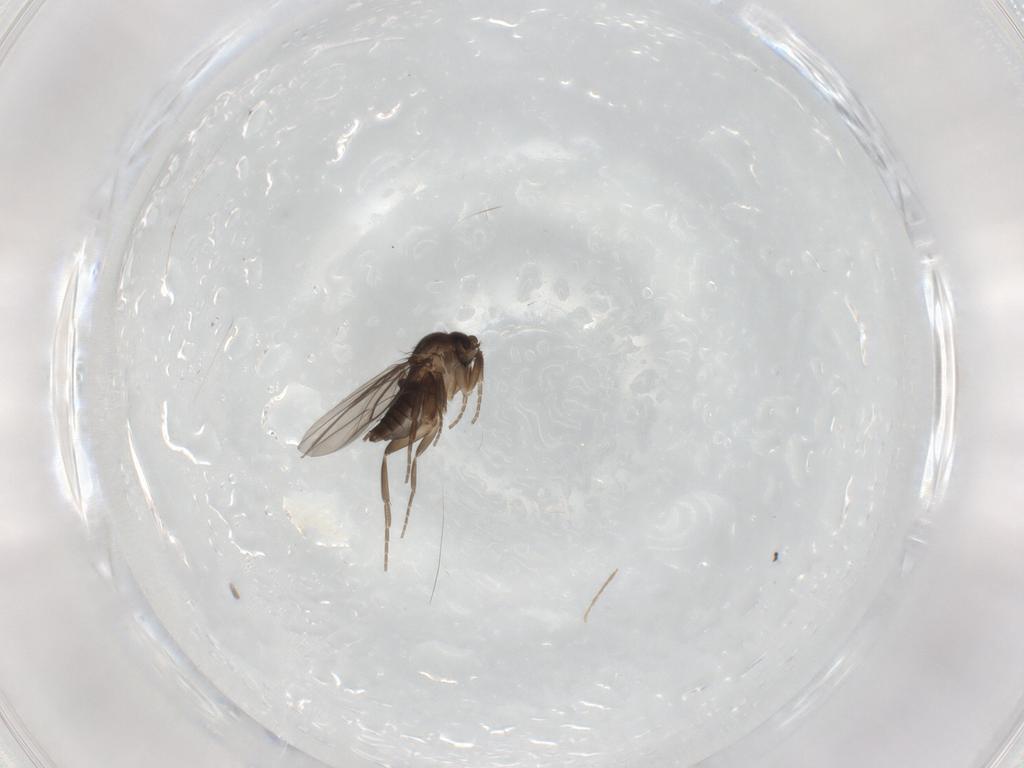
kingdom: Animalia
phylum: Arthropoda
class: Insecta
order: Diptera
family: Chironomidae
